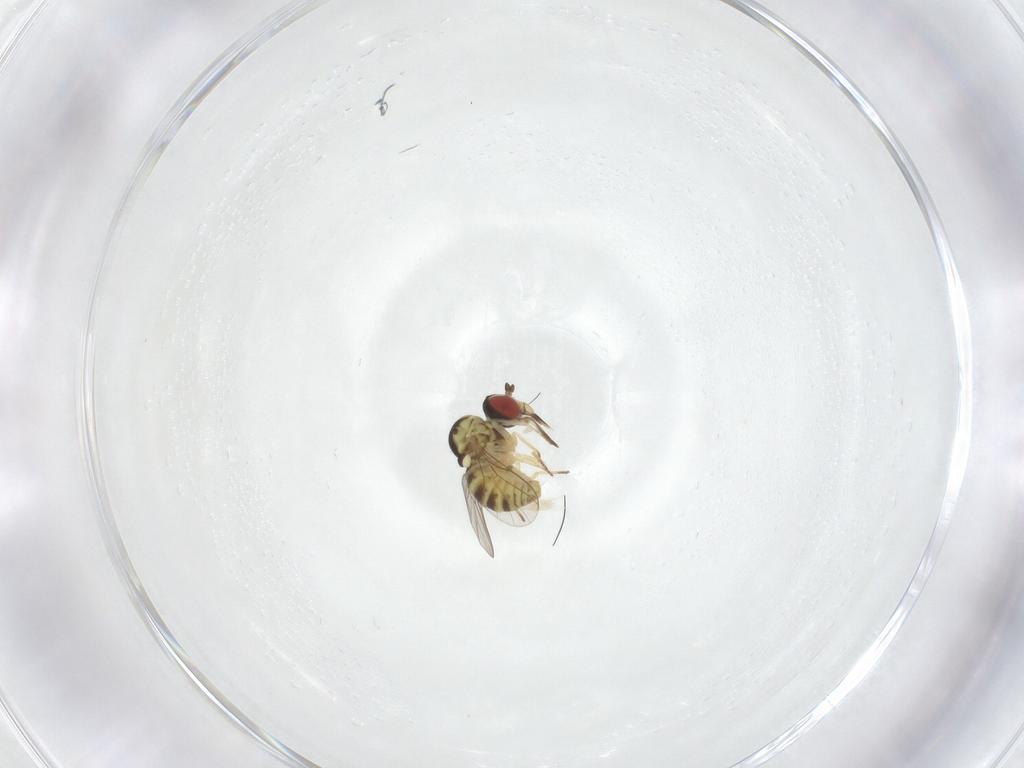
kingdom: Animalia
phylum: Arthropoda
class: Insecta
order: Diptera
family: Sarcophagidae
